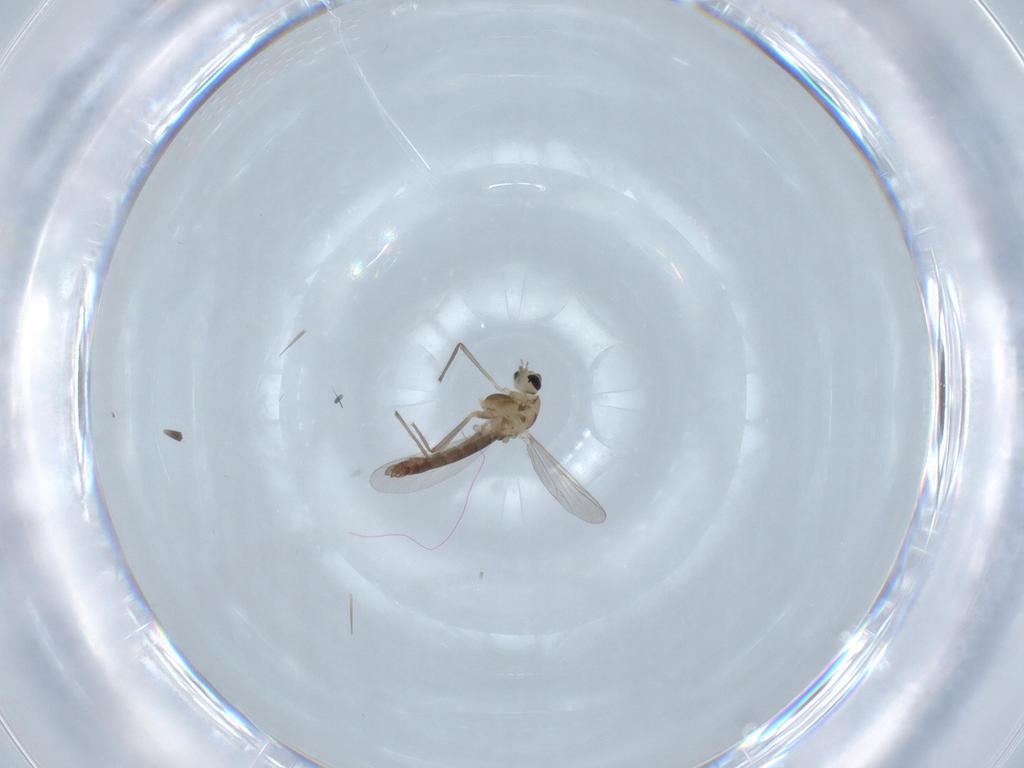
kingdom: Animalia
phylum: Arthropoda
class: Insecta
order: Diptera
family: Chironomidae
